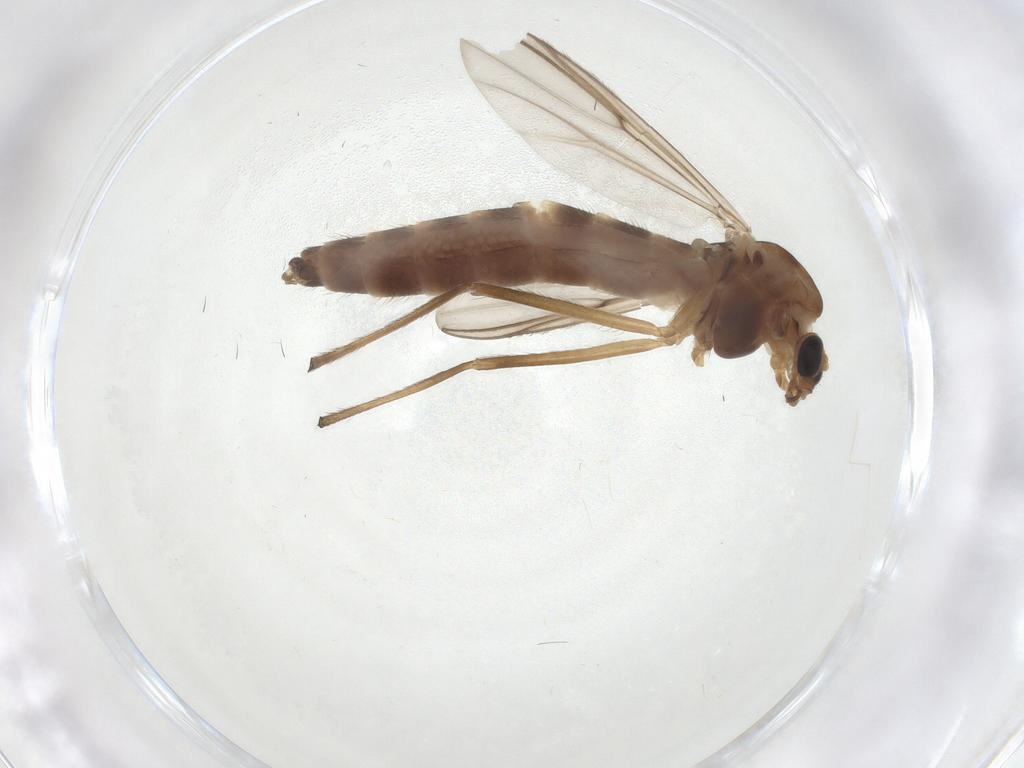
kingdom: Animalia
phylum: Arthropoda
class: Insecta
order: Diptera
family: Chironomidae
